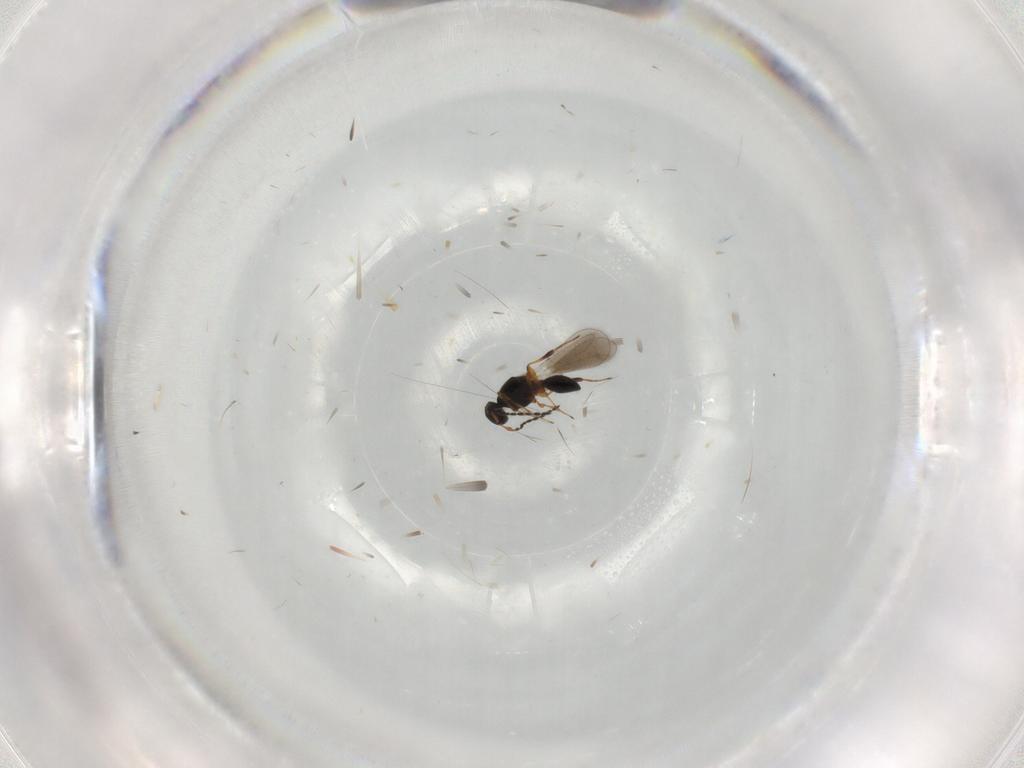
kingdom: Animalia
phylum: Arthropoda
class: Insecta
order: Hymenoptera
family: Platygastridae
